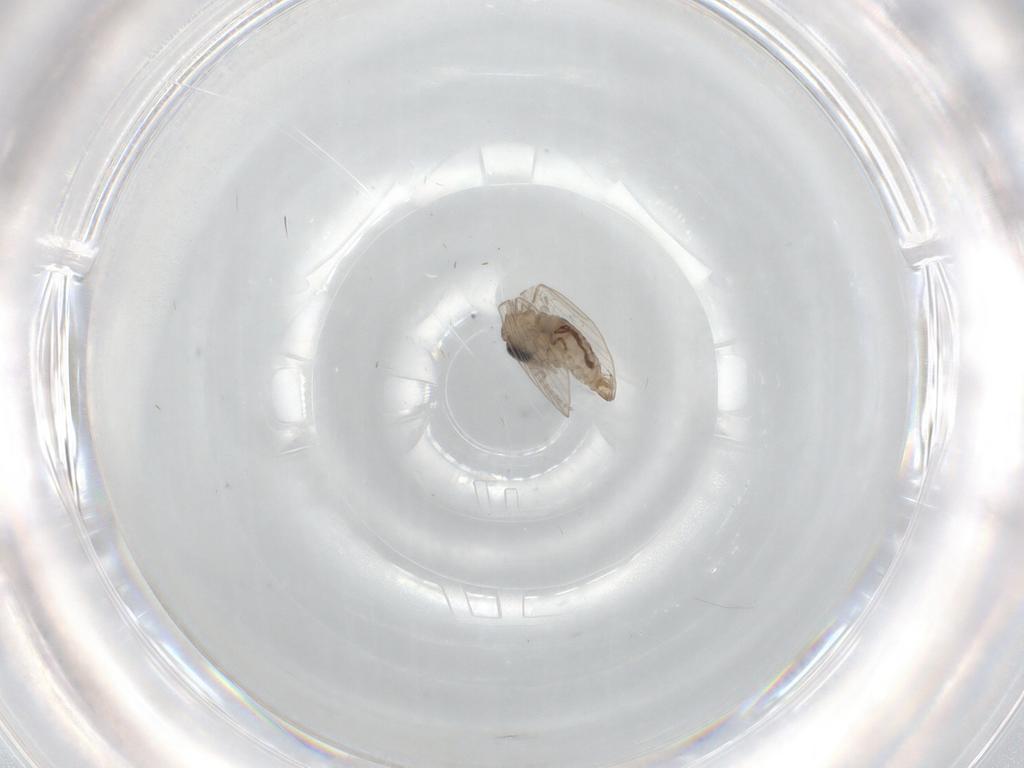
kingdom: Animalia
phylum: Arthropoda
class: Insecta
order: Diptera
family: Psychodidae
